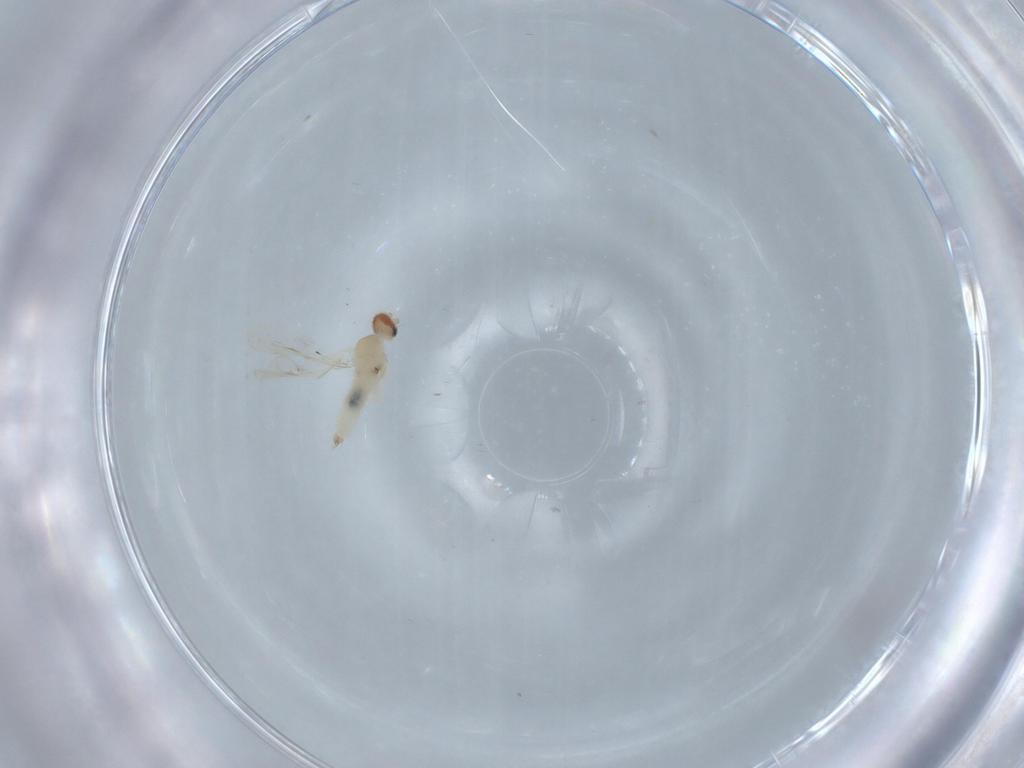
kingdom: Animalia
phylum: Arthropoda
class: Insecta
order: Diptera
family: Cecidomyiidae
